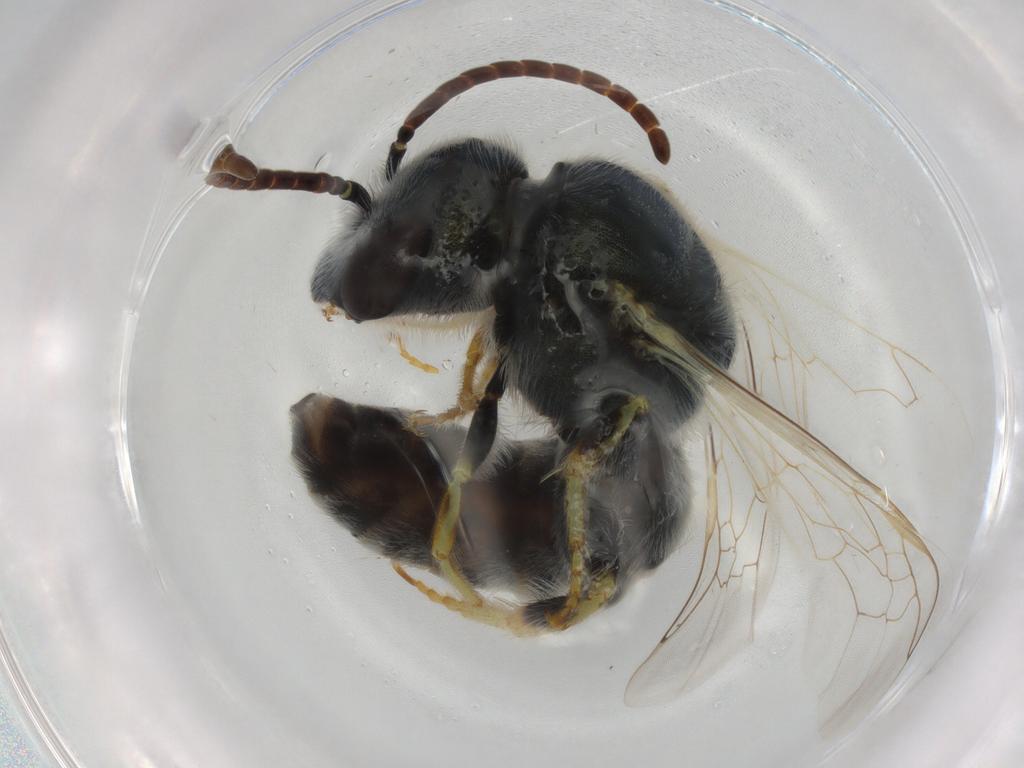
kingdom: Animalia
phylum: Arthropoda
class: Insecta
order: Hymenoptera
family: Halictidae
